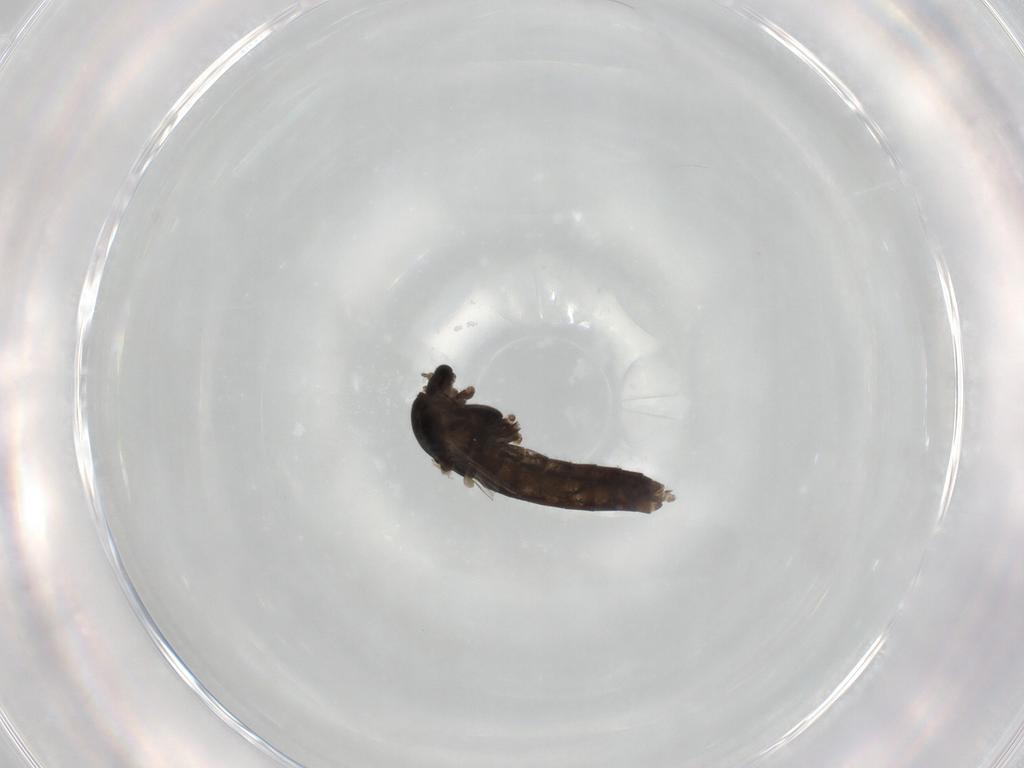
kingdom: Animalia
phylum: Arthropoda
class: Insecta
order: Diptera
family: Chironomidae
